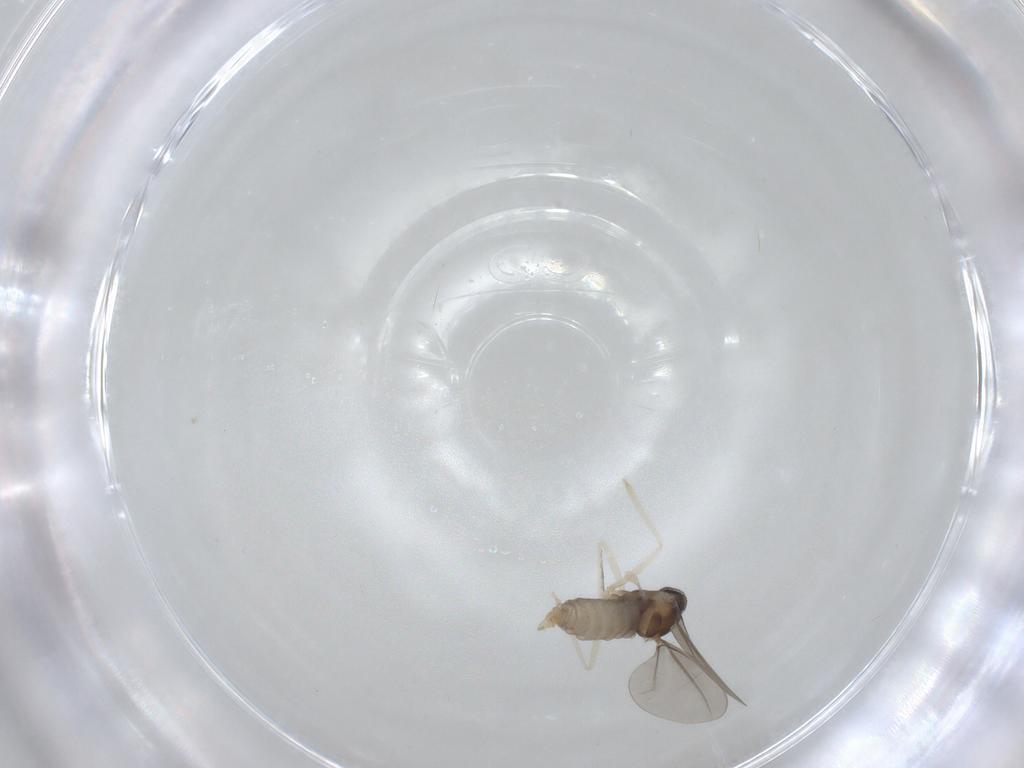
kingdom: Animalia
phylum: Arthropoda
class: Insecta
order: Diptera
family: Cecidomyiidae
